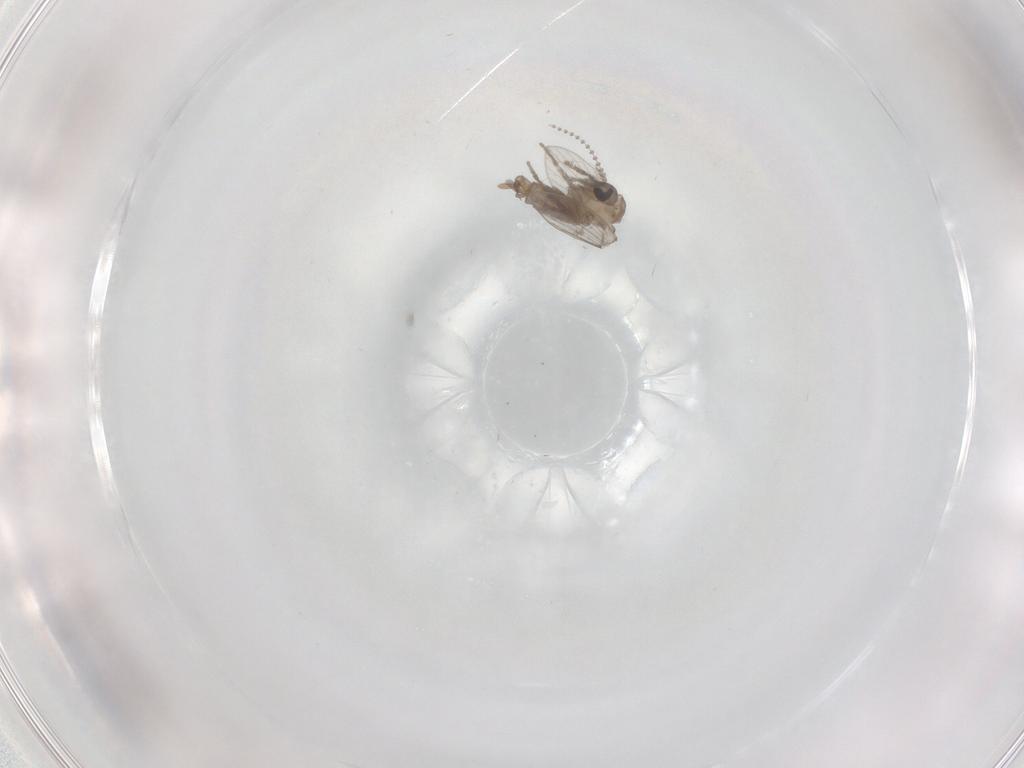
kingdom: Animalia
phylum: Arthropoda
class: Insecta
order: Diptera
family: Psychodidae
